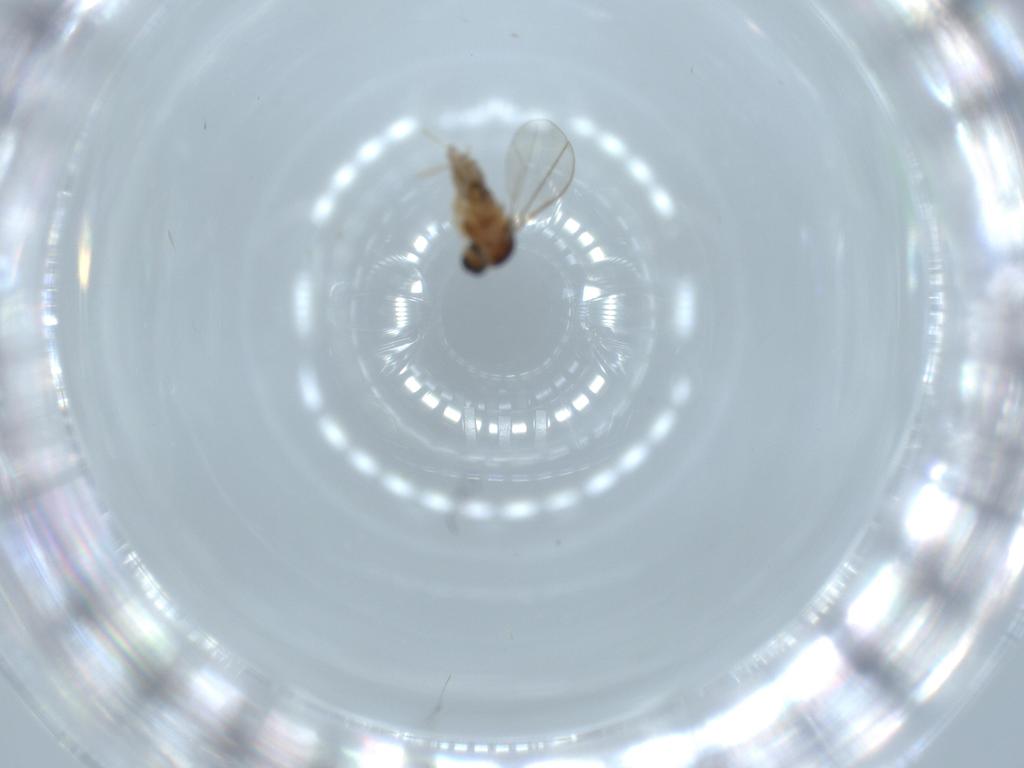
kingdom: Animalia
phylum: Arthropoda
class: Insecta
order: Diptera
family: Cecidomyiidae
